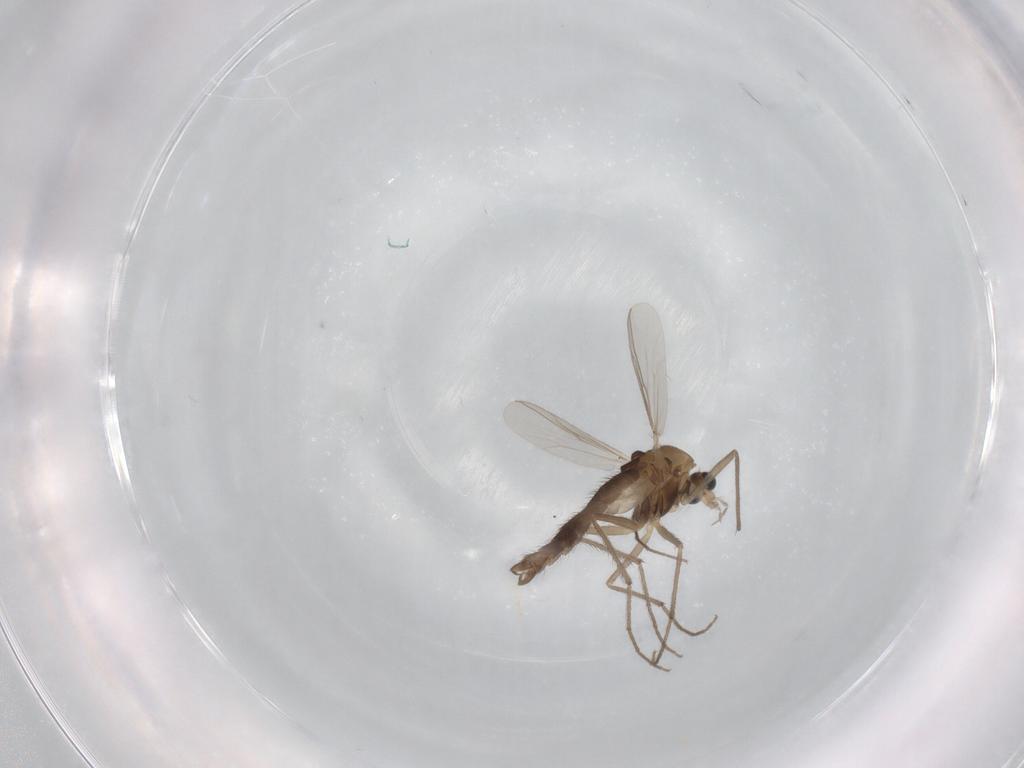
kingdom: Animalia
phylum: Arthropoda
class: Insecta
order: Diptera
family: Chironomidae
